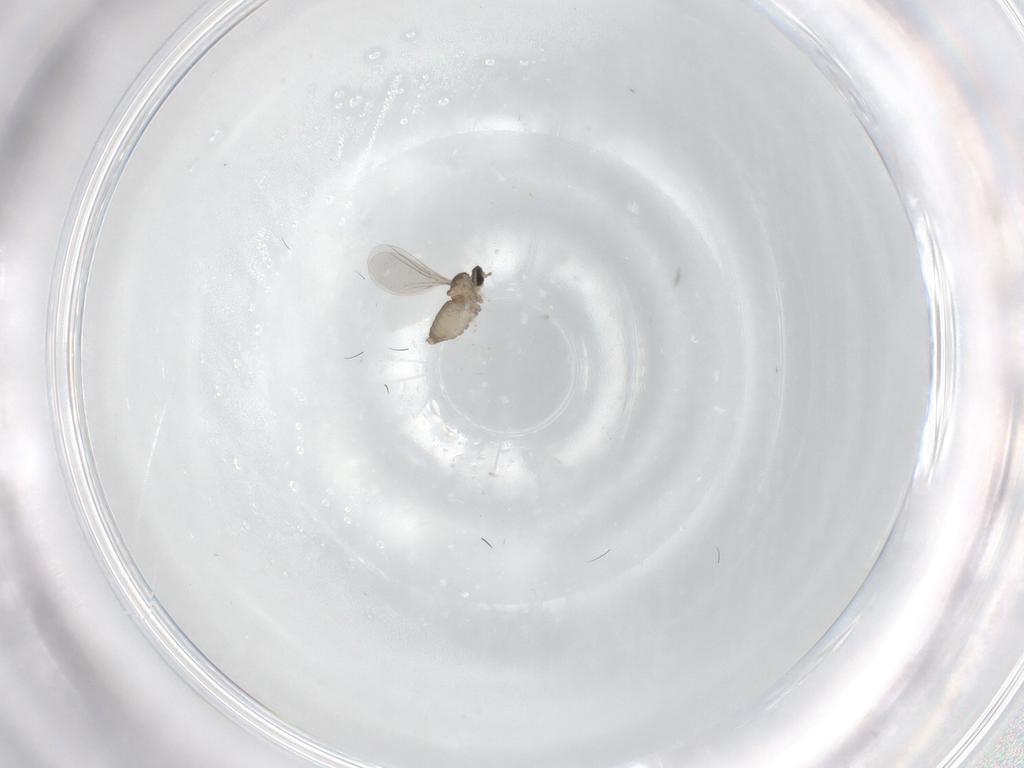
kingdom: Animalia
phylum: Arthropoda
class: Insecta
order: Diptera
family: Cecidomyiidae
